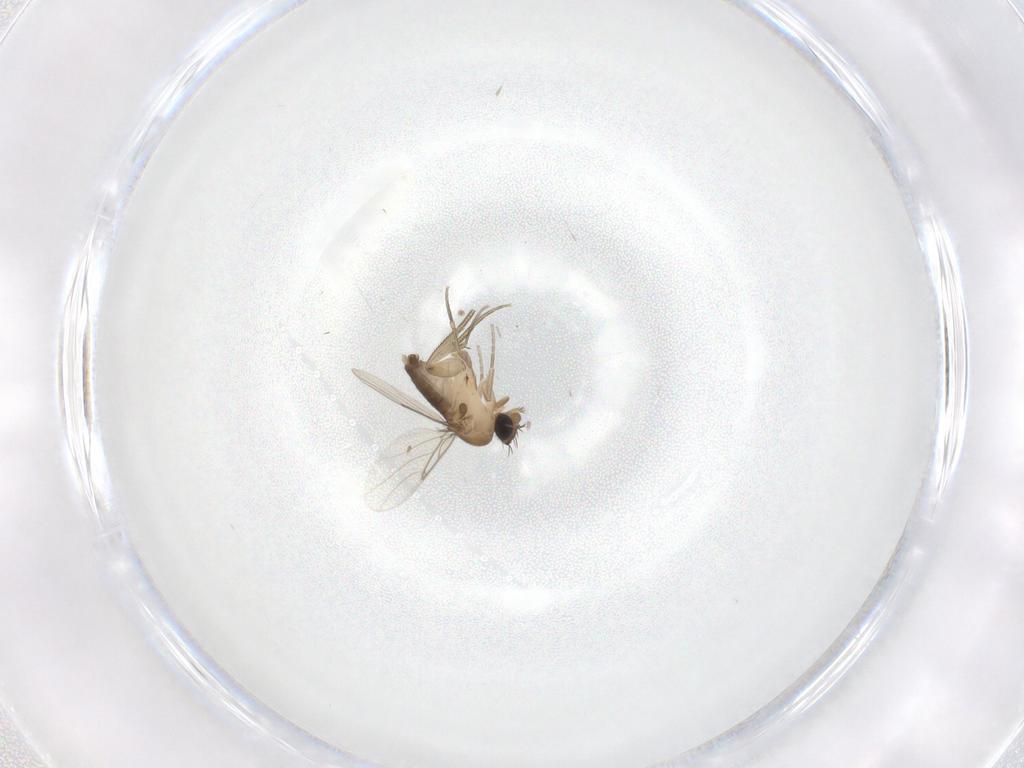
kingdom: Animalia
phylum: Arthropoda
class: Insecta
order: Diptera
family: Phoridae
